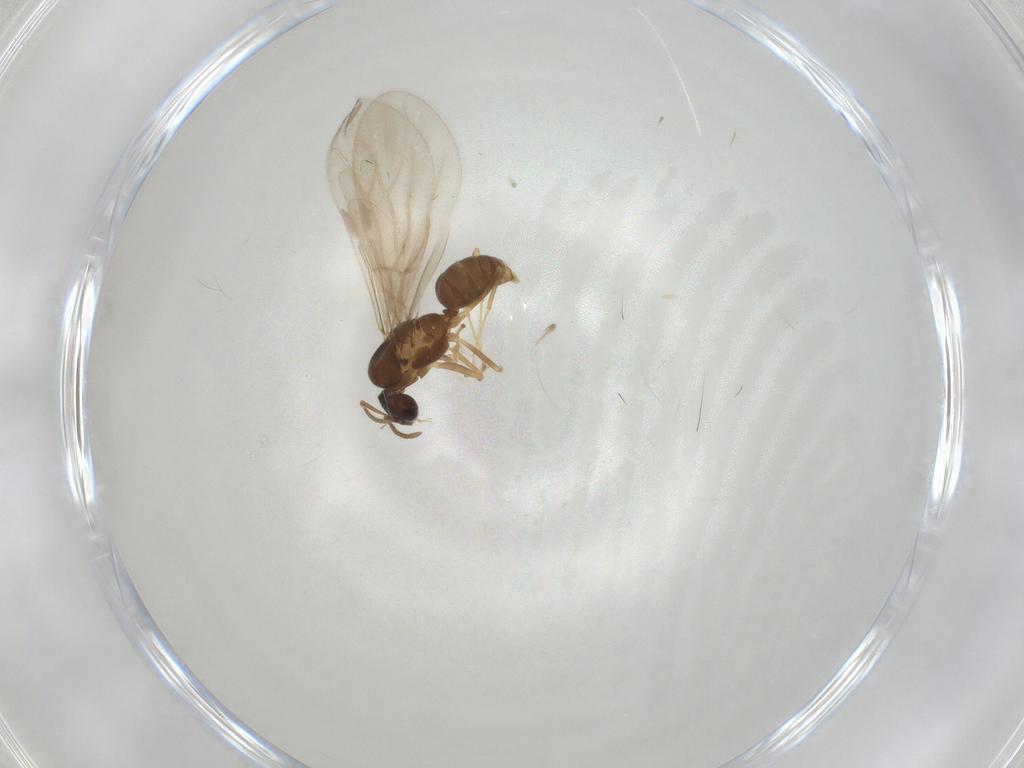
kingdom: Animalia
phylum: Arthropoda
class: Insecta
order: Hymenoptera
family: Formicidae
